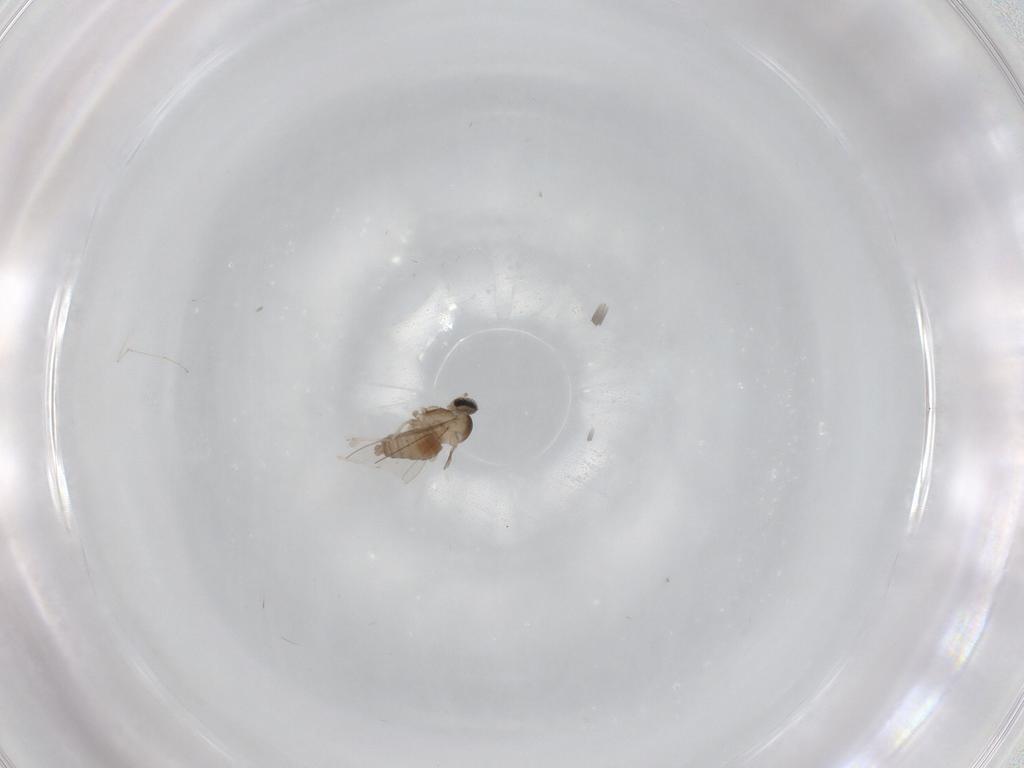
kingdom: Animalia
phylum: Arthropoda
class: Insecta
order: Diptera
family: Cecidomyiidae
